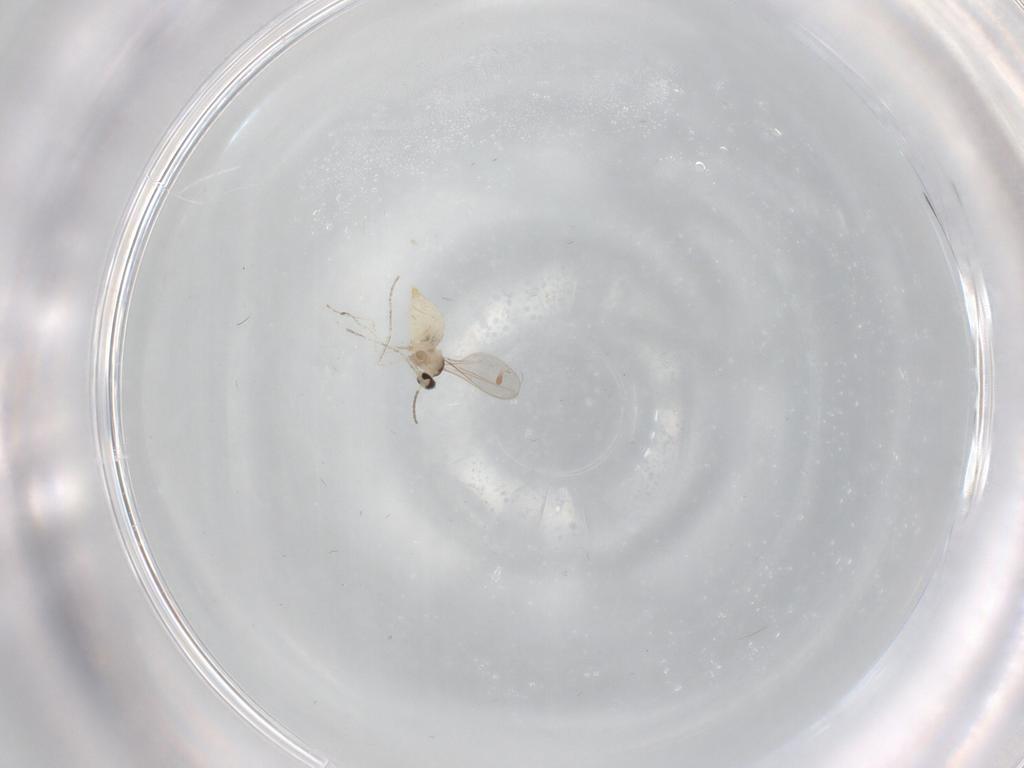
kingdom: Animalia
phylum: Arthropoda
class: Insecta
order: Diptera
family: Cecidomyiidae
